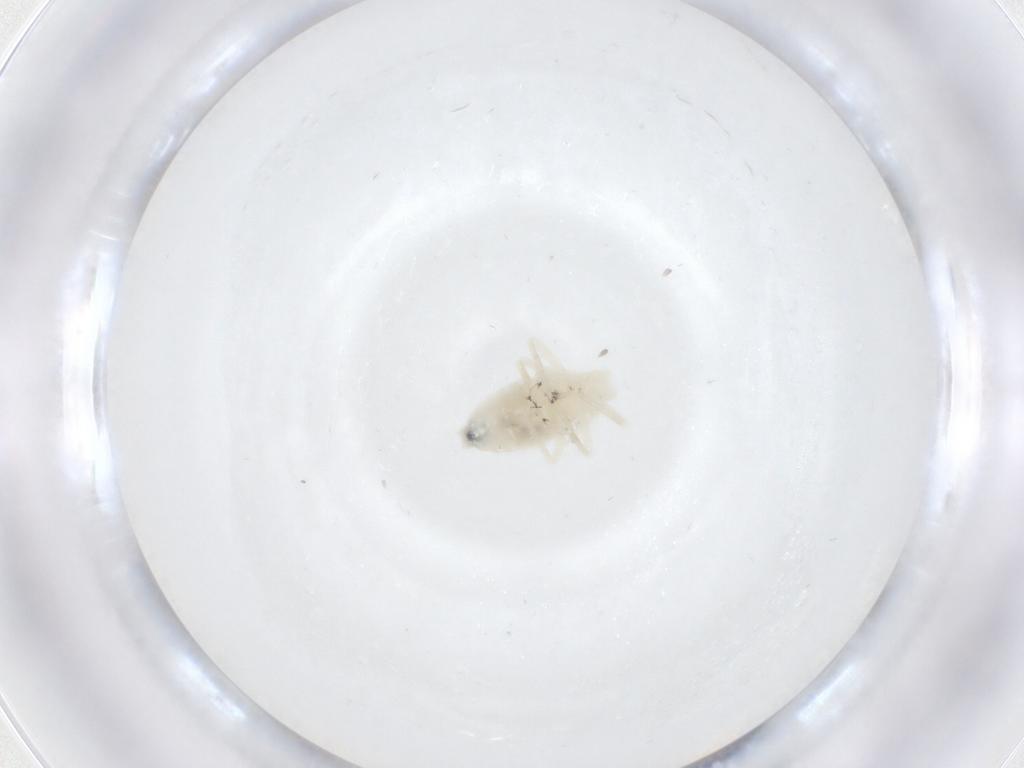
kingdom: Animalia
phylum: Arthropoda
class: Insecta
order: Psocodea
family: Caeciliusidae
